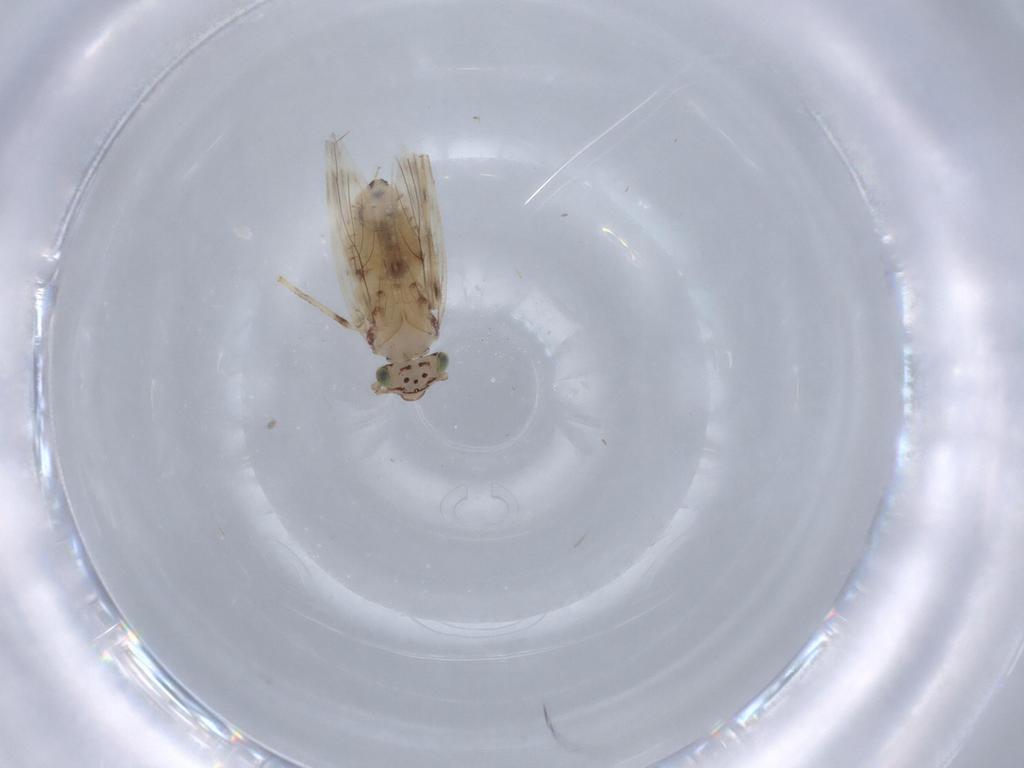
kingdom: Animalia
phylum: Arthropoda
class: Insecta
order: Psocodea
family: Lepidopsocidae
